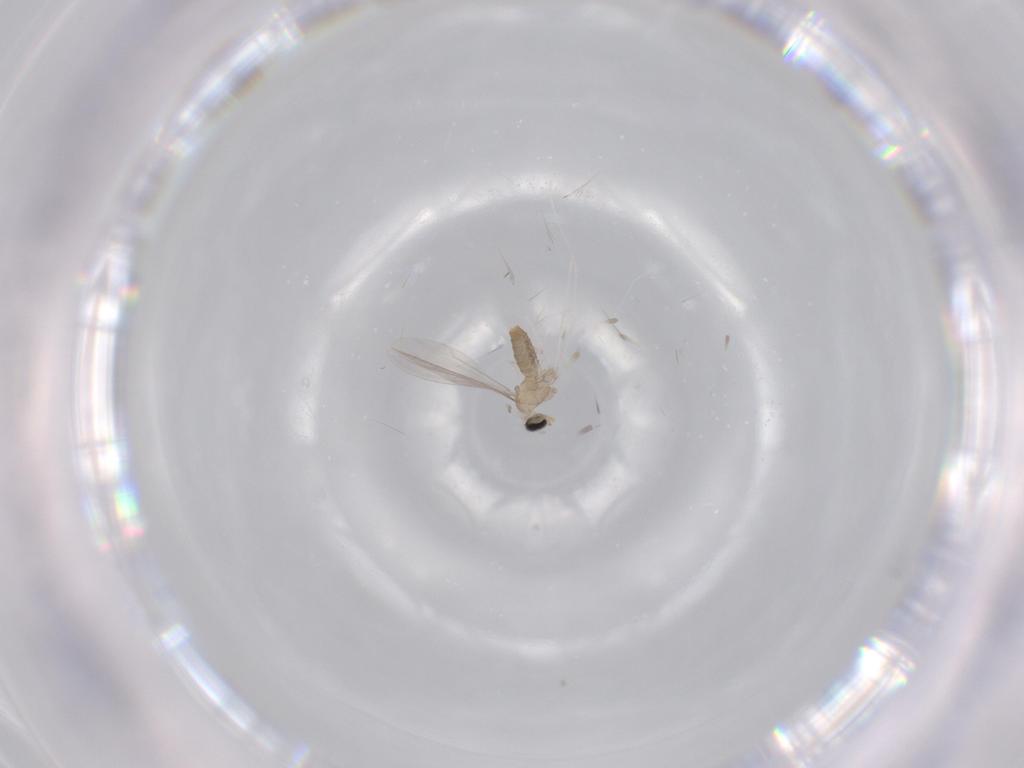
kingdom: Animalia
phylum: Arthropoda
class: Insecta
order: Diptera
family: Cecidomyiidae
